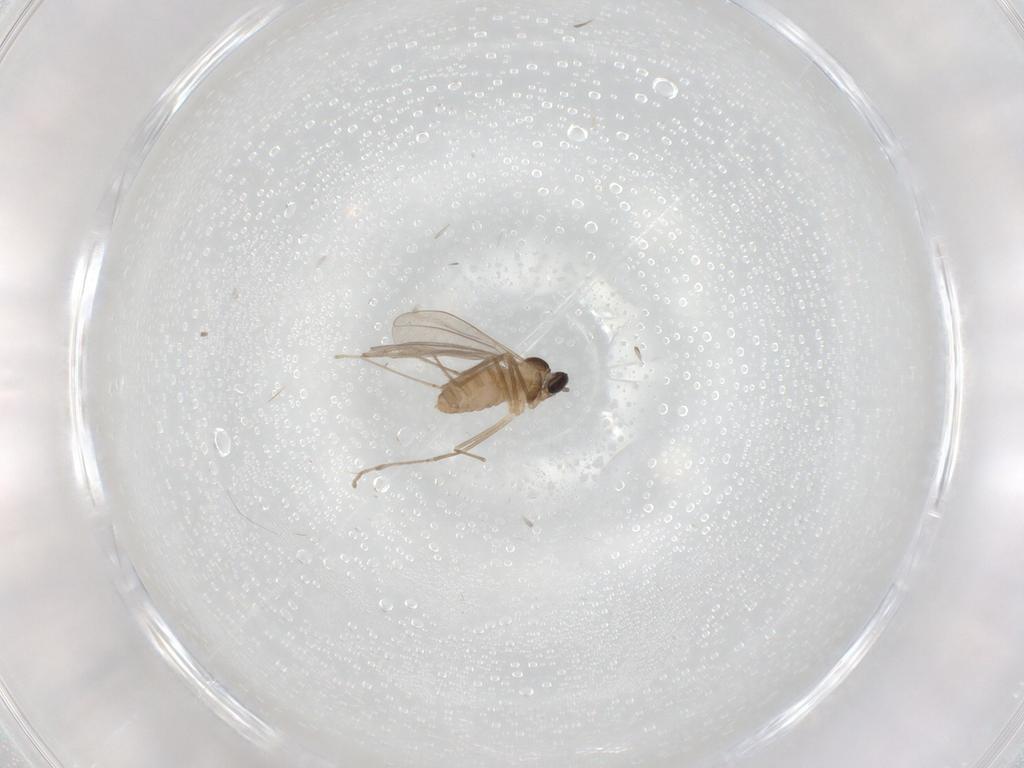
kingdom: Animalia
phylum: Arthropoda
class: Insecta
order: Diptera
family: Cecidomyiidae
